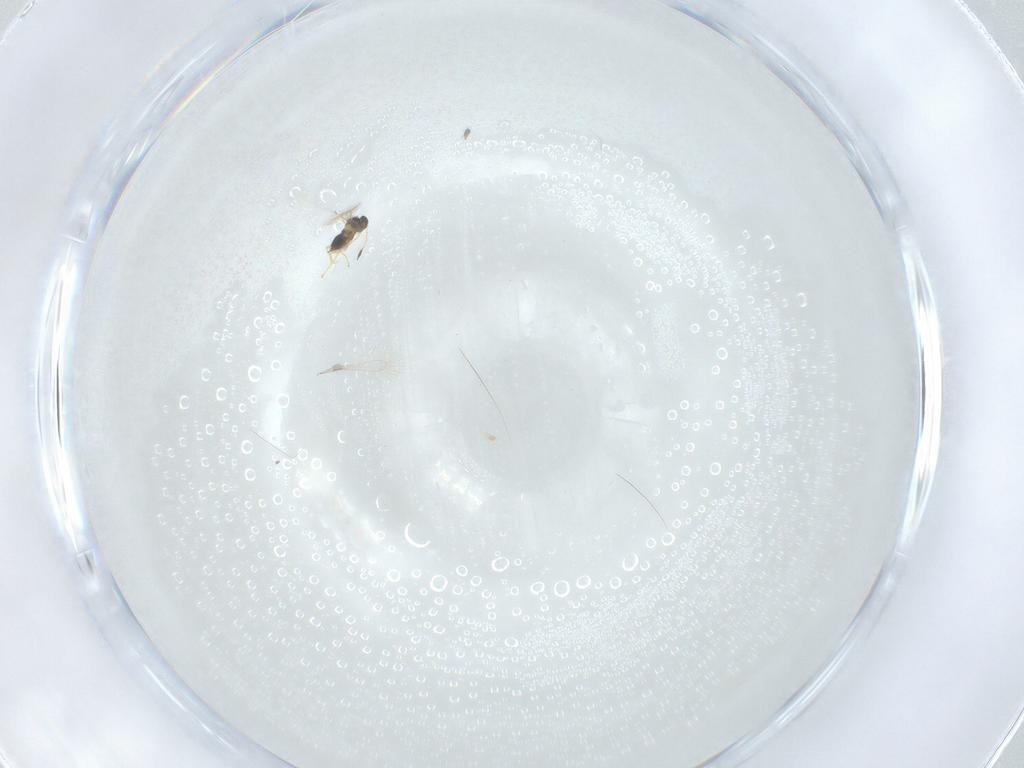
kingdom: Animalia
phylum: Arthropoda
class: Insecta
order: Hymenoptera
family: Mymaridae
